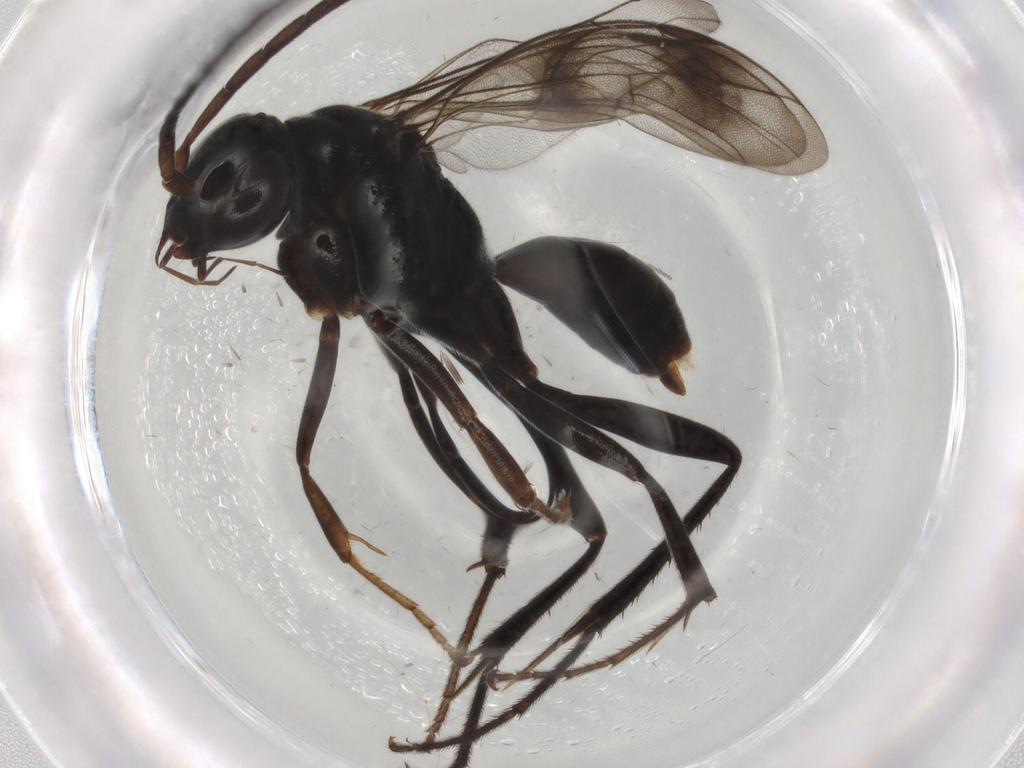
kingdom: Animalia
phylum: Arthropoda
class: Insecta
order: Hymenoptera
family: Pompilidae
